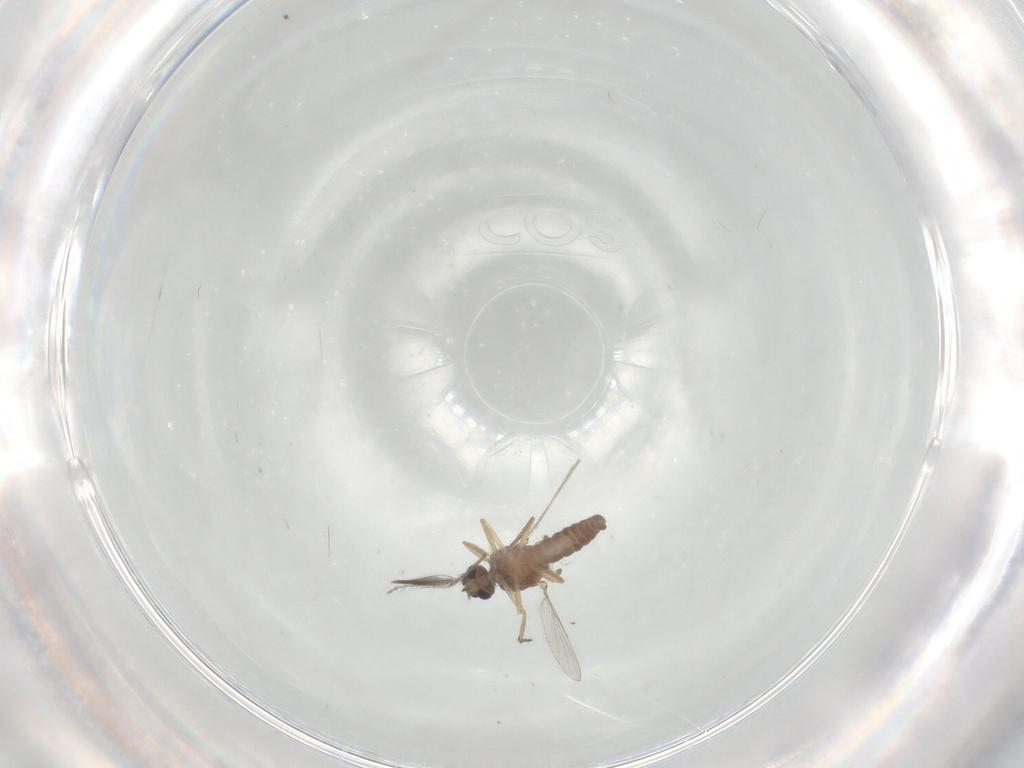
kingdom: Animalia
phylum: Arthropoda
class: Insecta
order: Diptera
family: Ceratopogonidae
